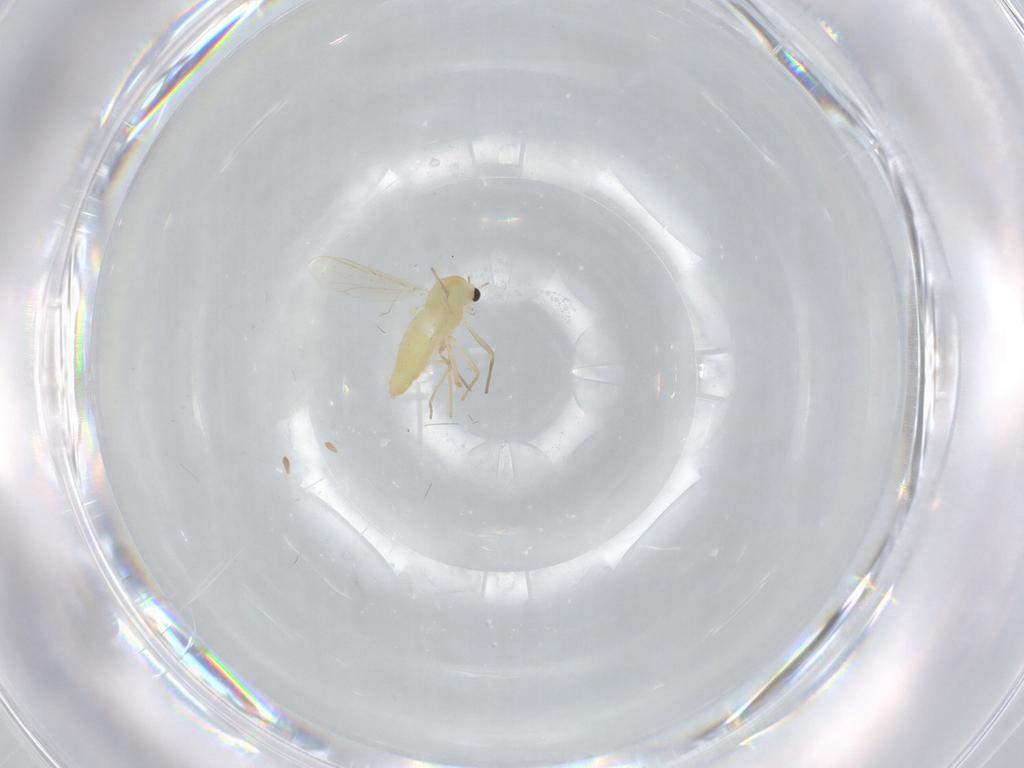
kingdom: Animalia
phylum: Arthropoda
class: Insecta
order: Diptera
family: Chironomidae
